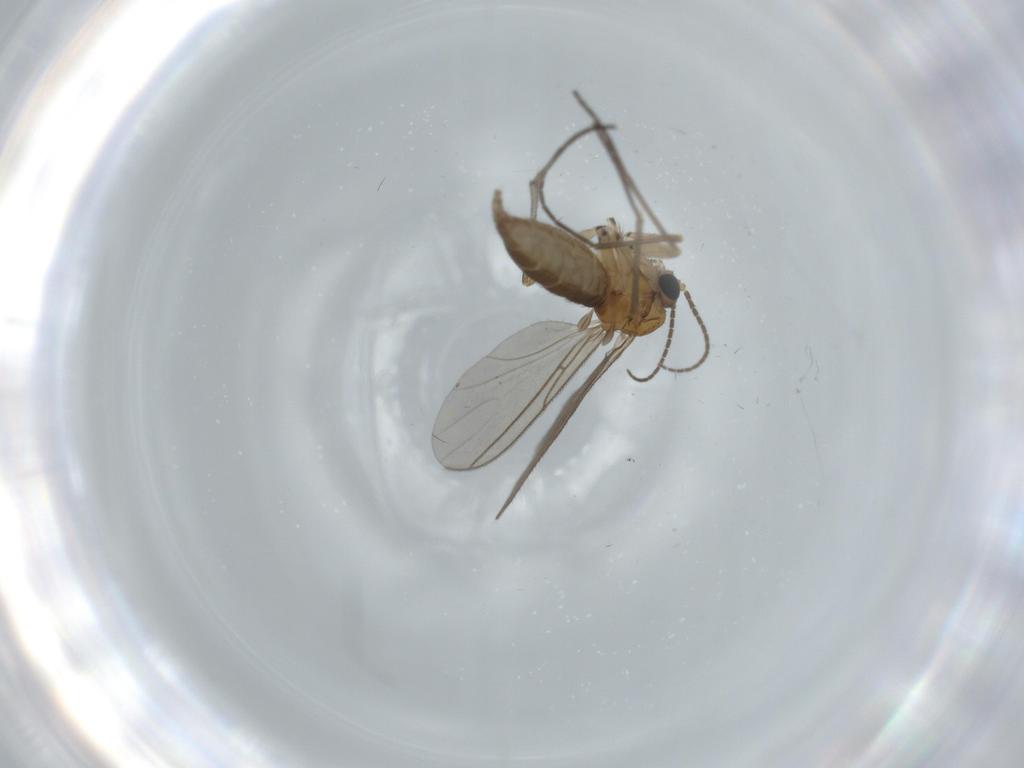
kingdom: Animalia
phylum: Arthropoda
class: Insecta
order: Diptera
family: Sciaridae
